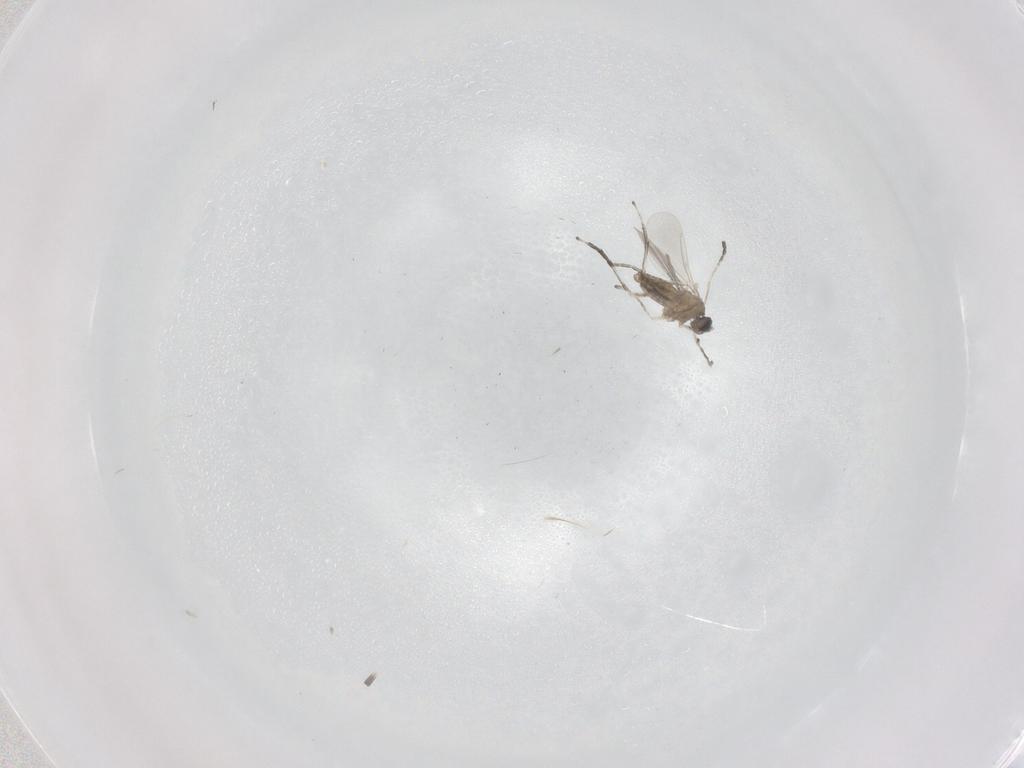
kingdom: Animalia
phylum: Arthropoda
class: Insecta
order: Diptera
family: Cecidomyiidae
